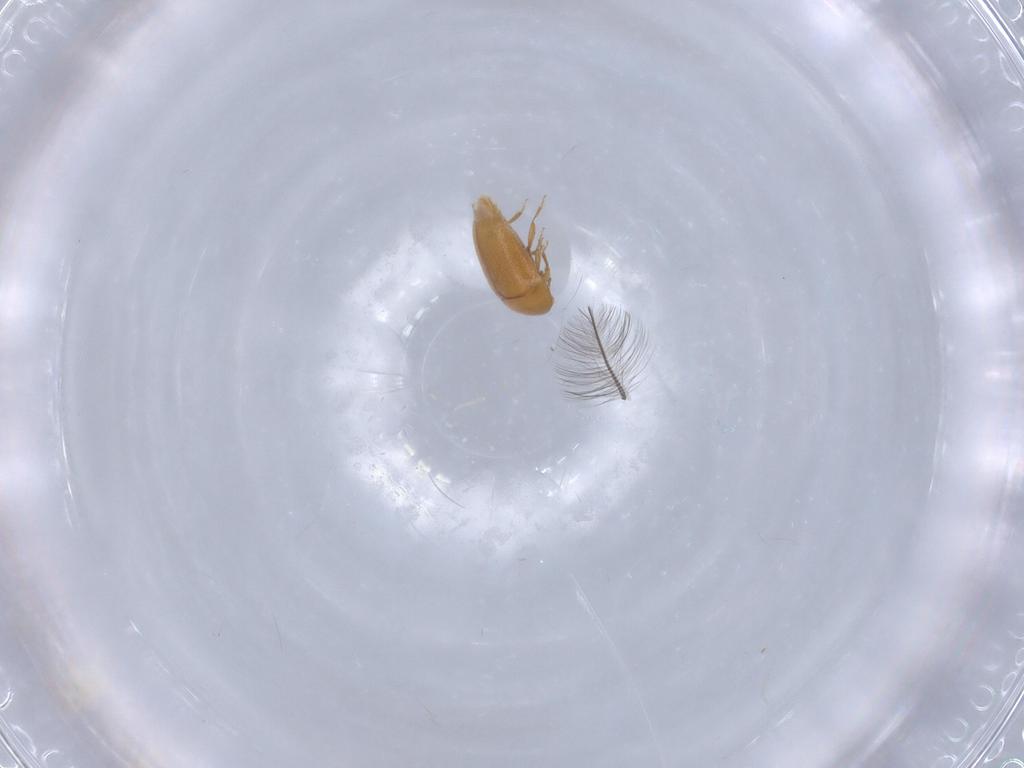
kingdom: Animalia
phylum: Arthropoda
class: Insecta
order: Coleoptera
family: Corylophidae
